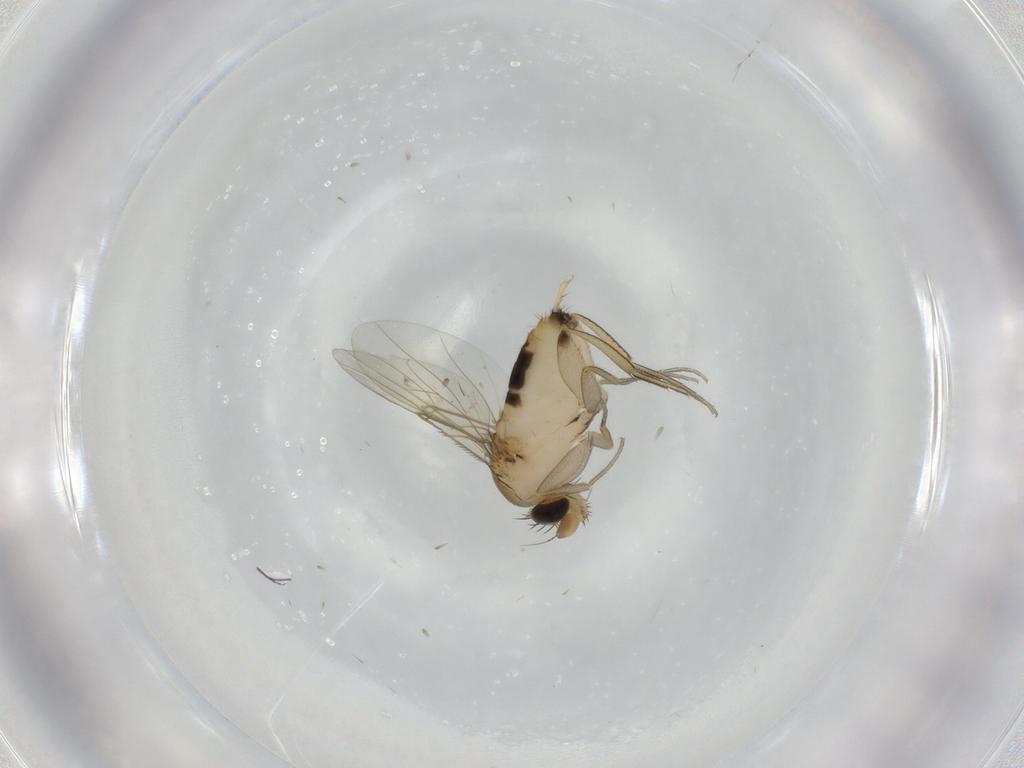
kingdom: Animalia
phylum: Arthropoda
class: Insecta
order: Diptera
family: Phoridae
